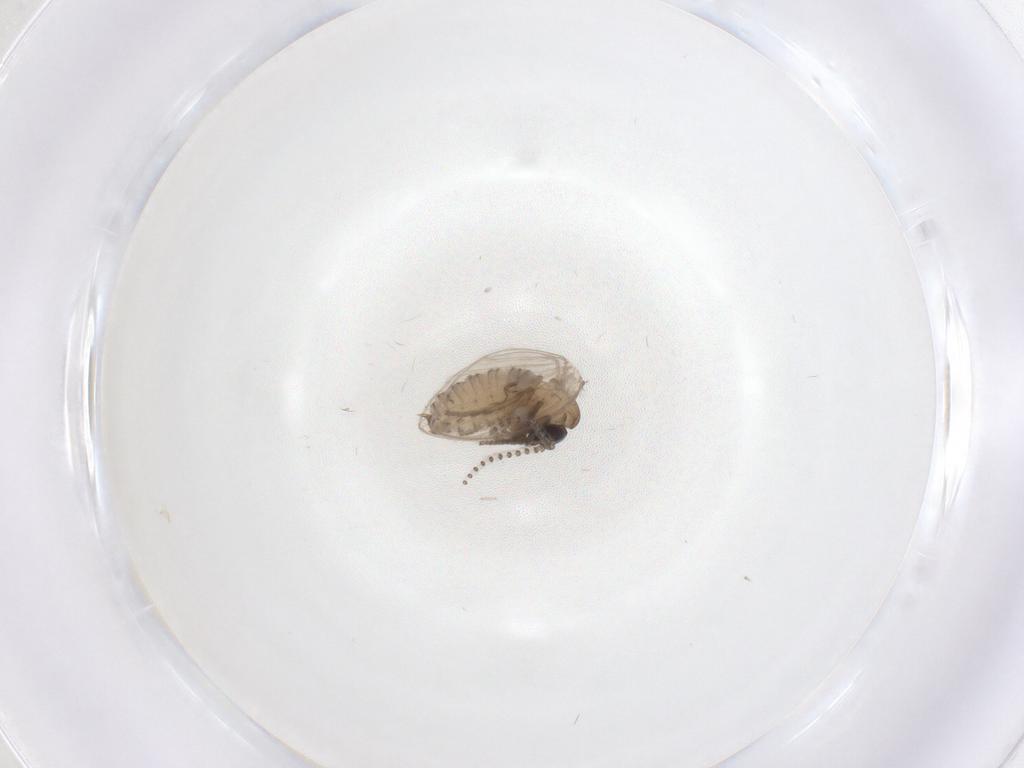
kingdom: Animalia
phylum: Arthropoda
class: Insecta
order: Diptera
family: Psychodidae
